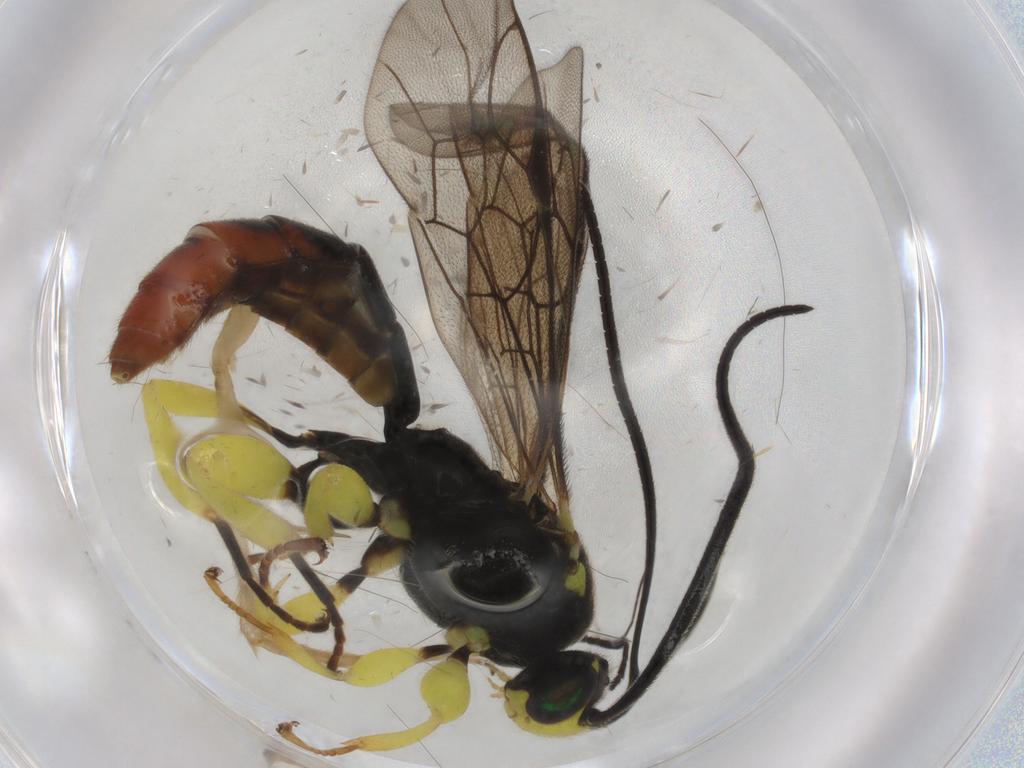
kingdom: Animalia
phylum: Arthropoda
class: Insecta
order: Hymenoptera
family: Ichneumonidae
